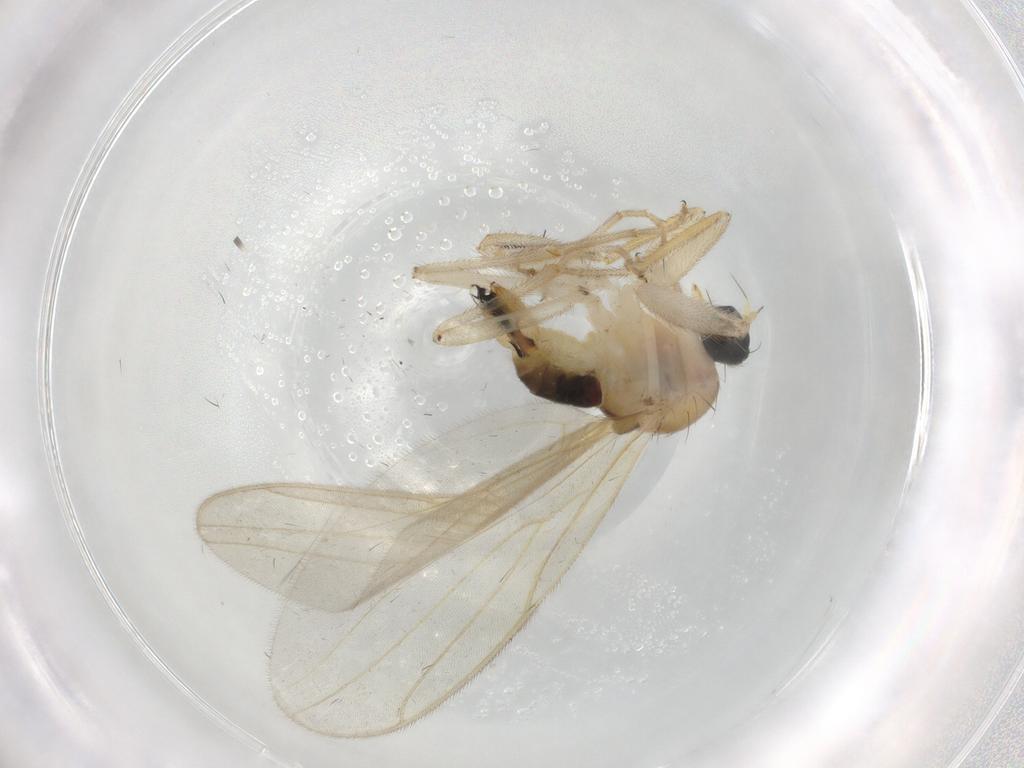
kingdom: Animalia
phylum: Arthropoda
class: Insecta
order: Diptera
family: Hybotidae
